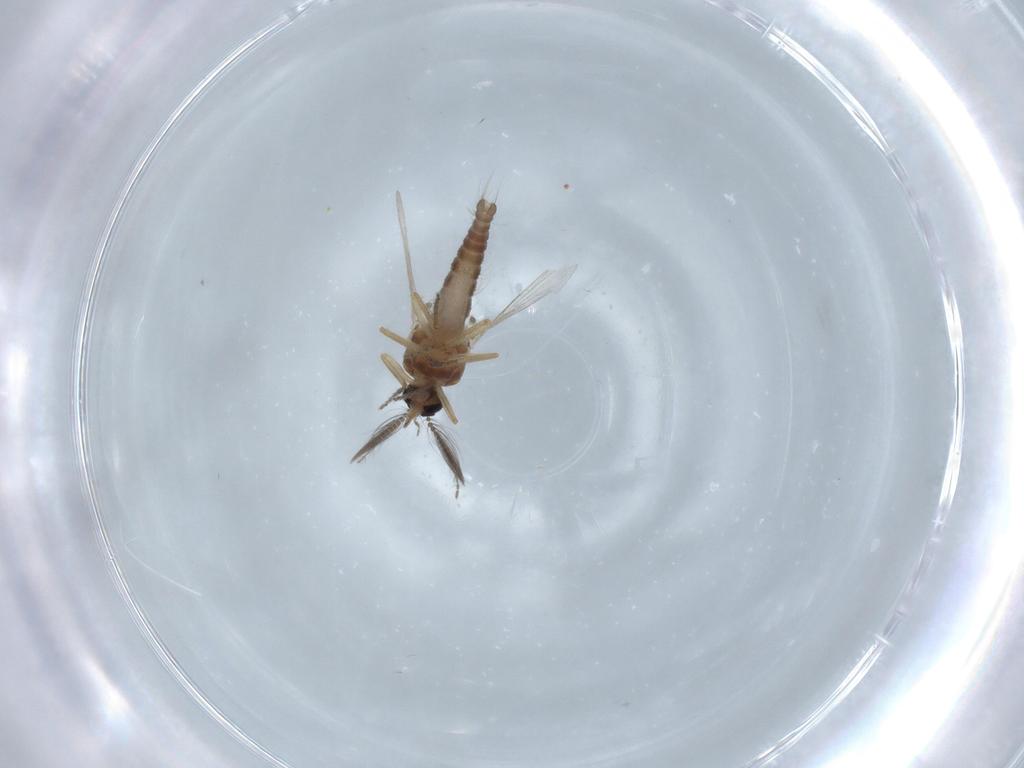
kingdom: Animalia
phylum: Arthropoda
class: Insecta
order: Diptera
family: Ceratopogonidae
